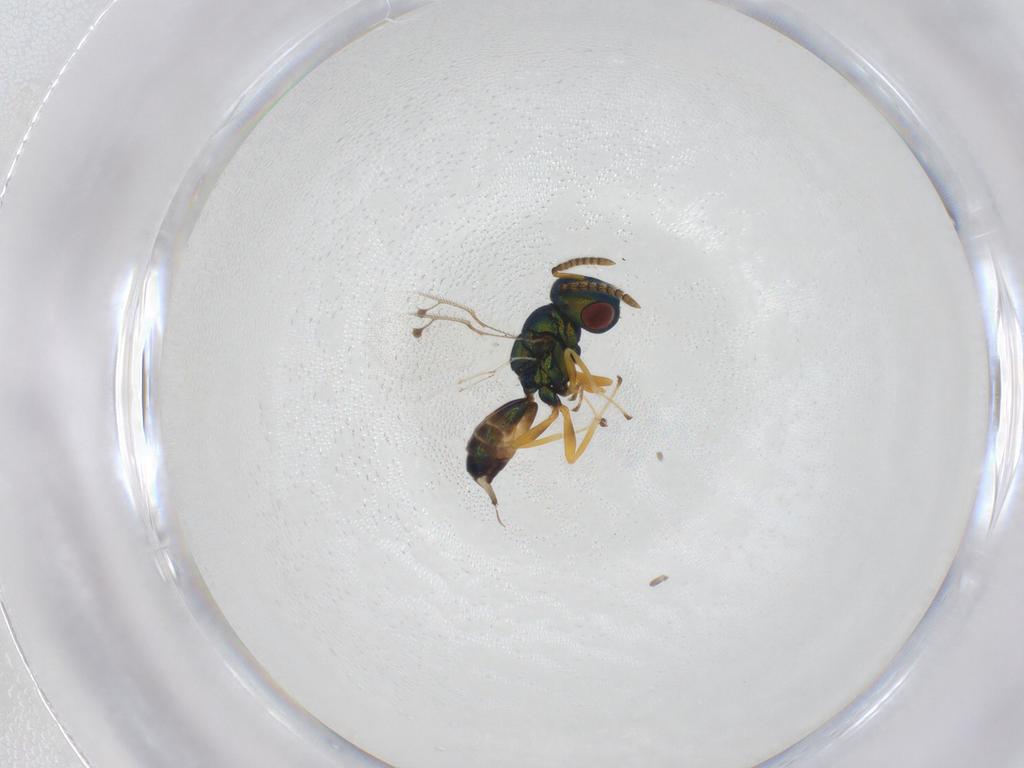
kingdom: Animalia
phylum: Arthropoda
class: Insecta
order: Hymenoptera
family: Pteromalidae
